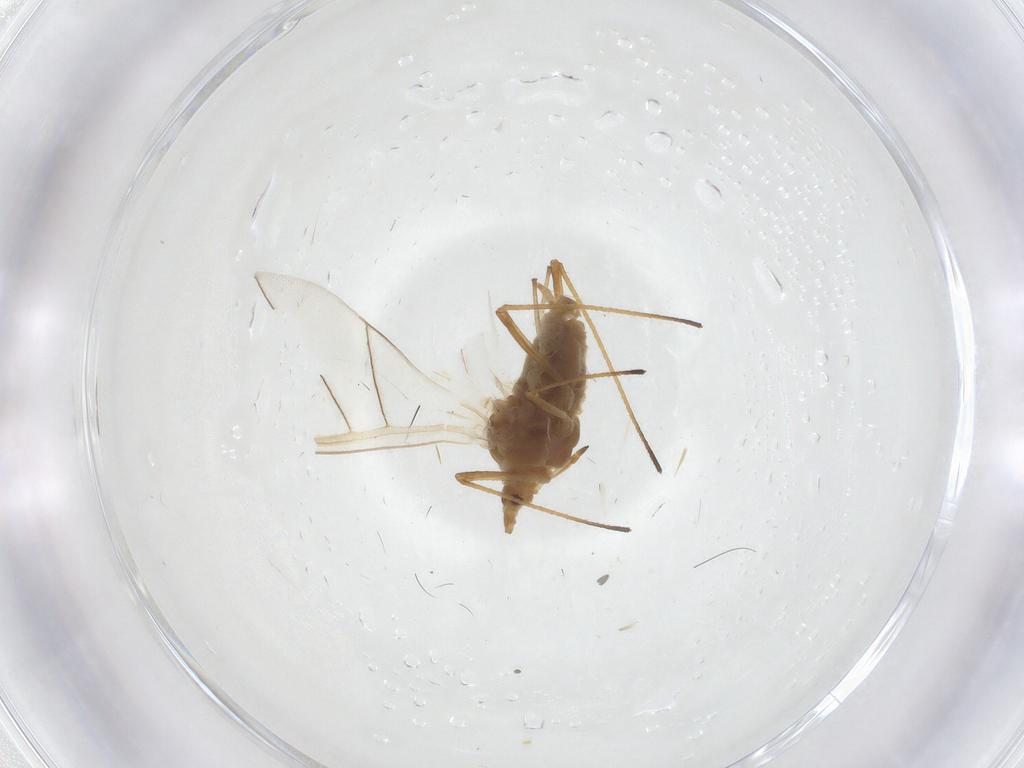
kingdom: Animalia
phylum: Arthropoda
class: Insecta
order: Hemiptera
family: Aphididae
